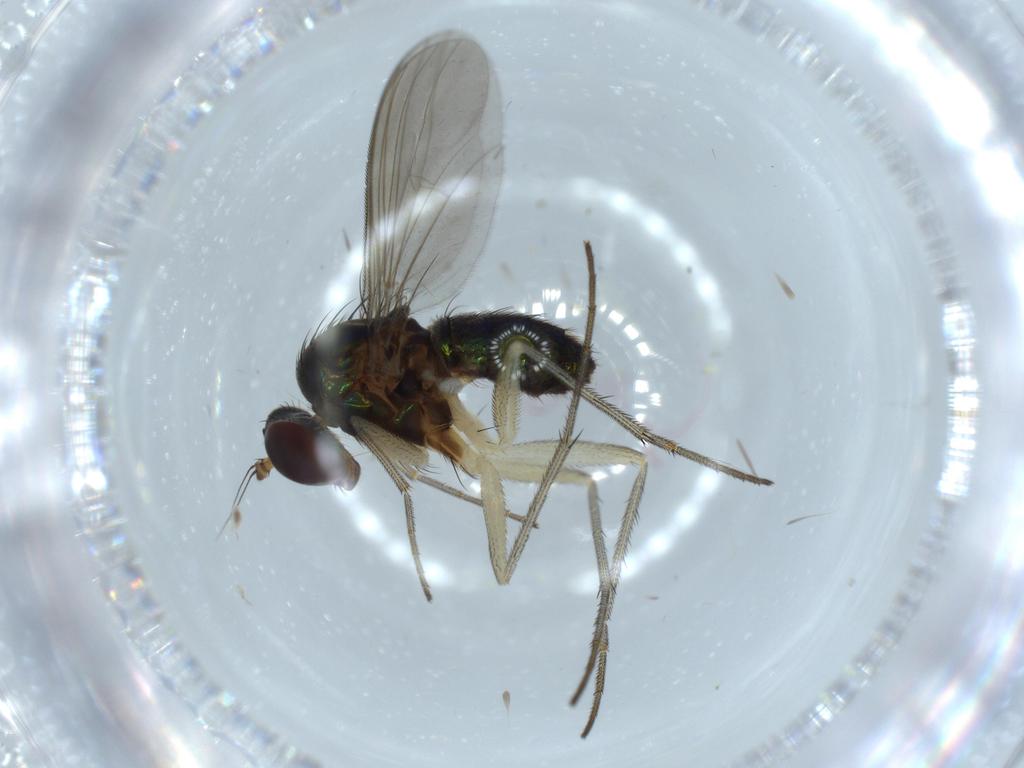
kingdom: Animalia
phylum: Arthropoda
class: Insecta
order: Diptera
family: Dolichopodidae
